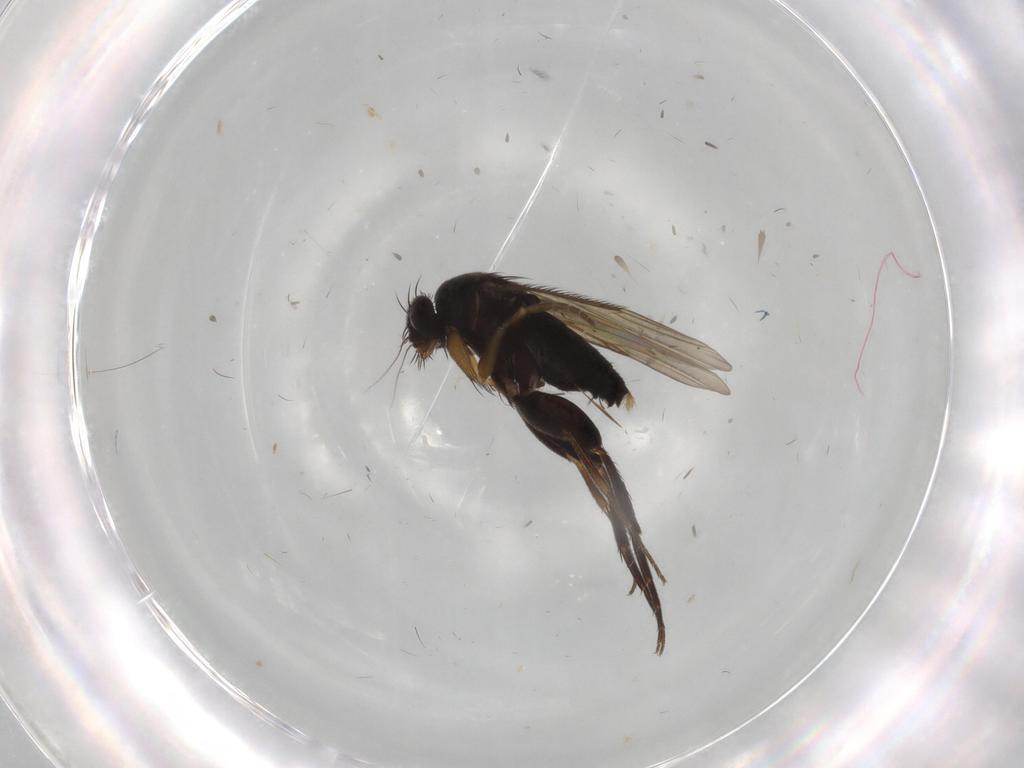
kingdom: Animalia
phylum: Arthropoda
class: Insecta
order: Diptera
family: Phoridae
